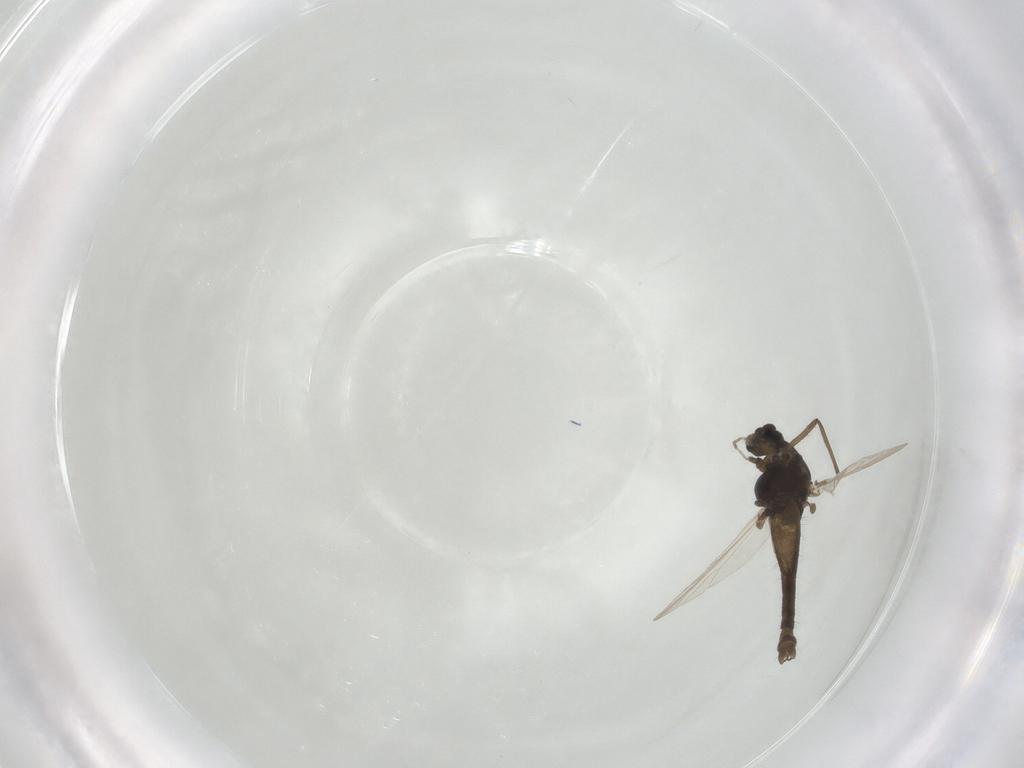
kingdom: Animalia
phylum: Arthropoda
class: Insecta
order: Diptera
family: Chironomidae
